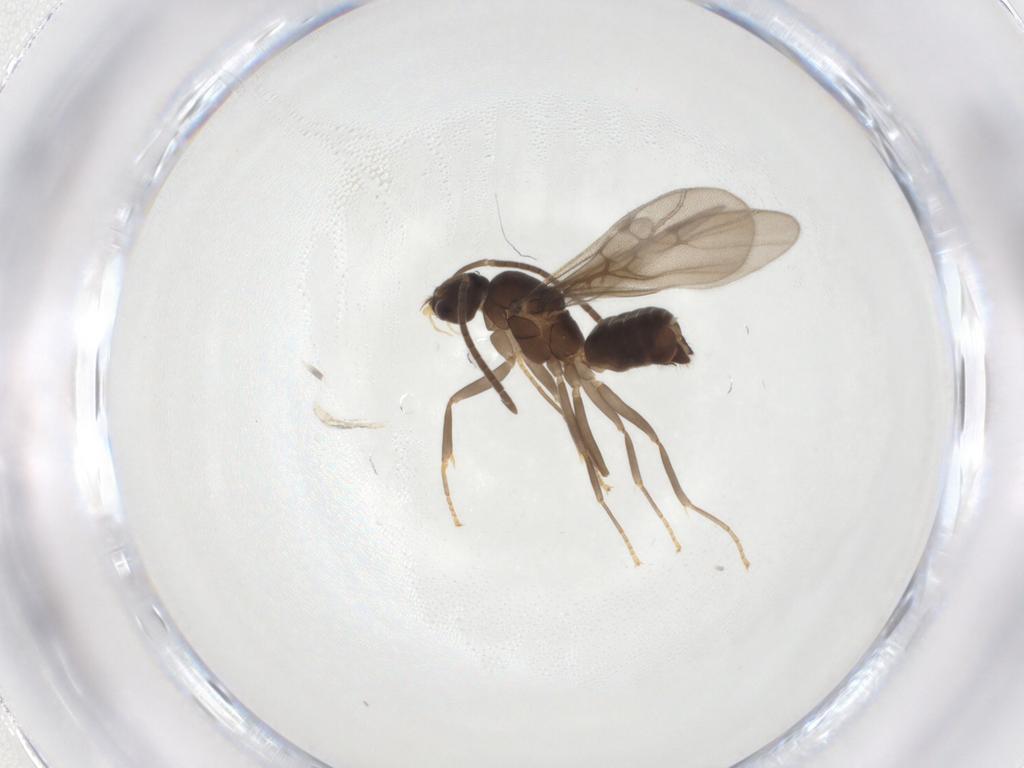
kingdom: Animalia
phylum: Arthropoda
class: Insecta
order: Hymenoptera
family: Formicidae
